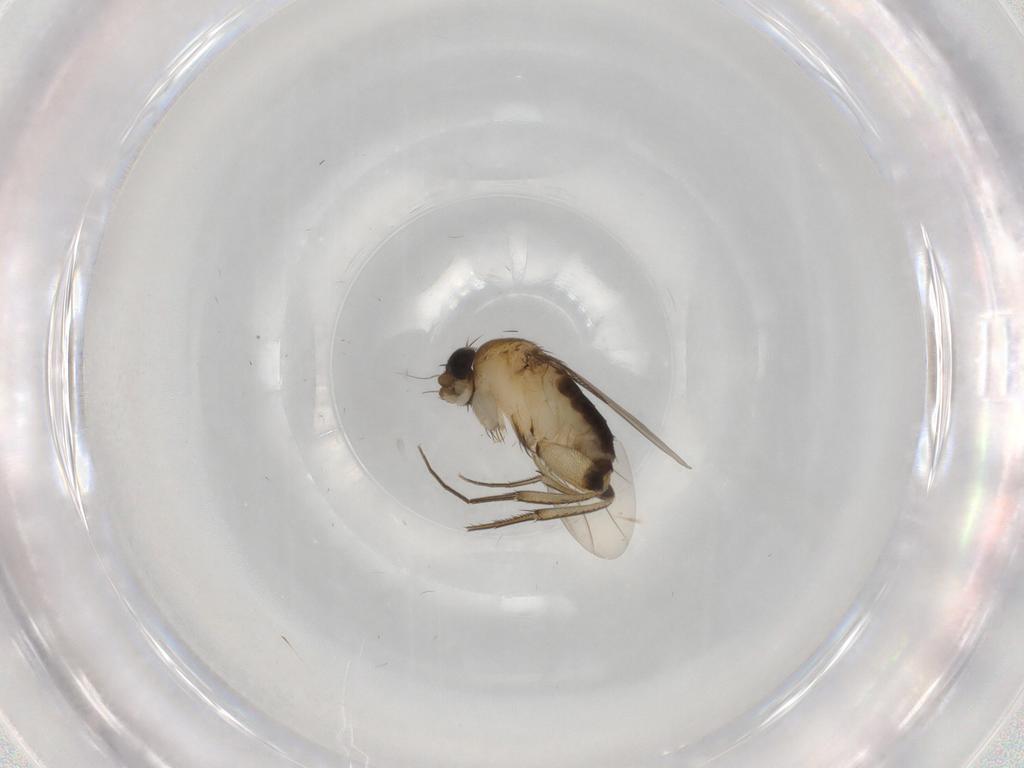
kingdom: Animalia
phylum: Arthropoda
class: Insecta
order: Diptera
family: Phoridae
